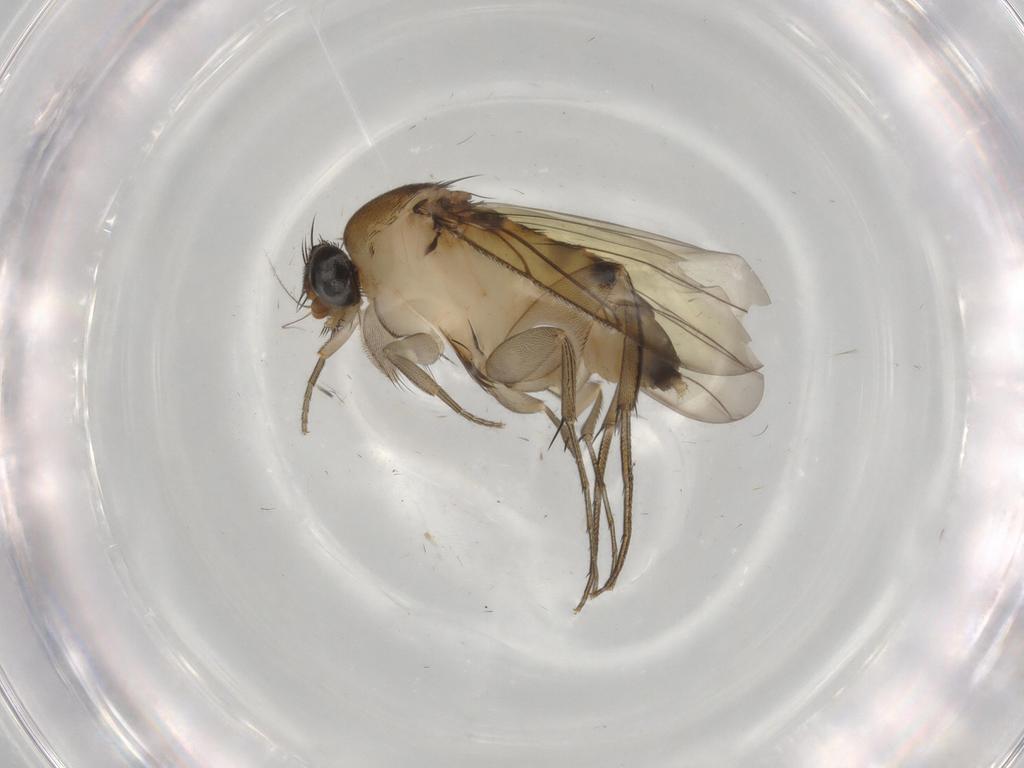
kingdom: Animalia
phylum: Arthropoda
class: Insecta
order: Diptera
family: Phoridae
